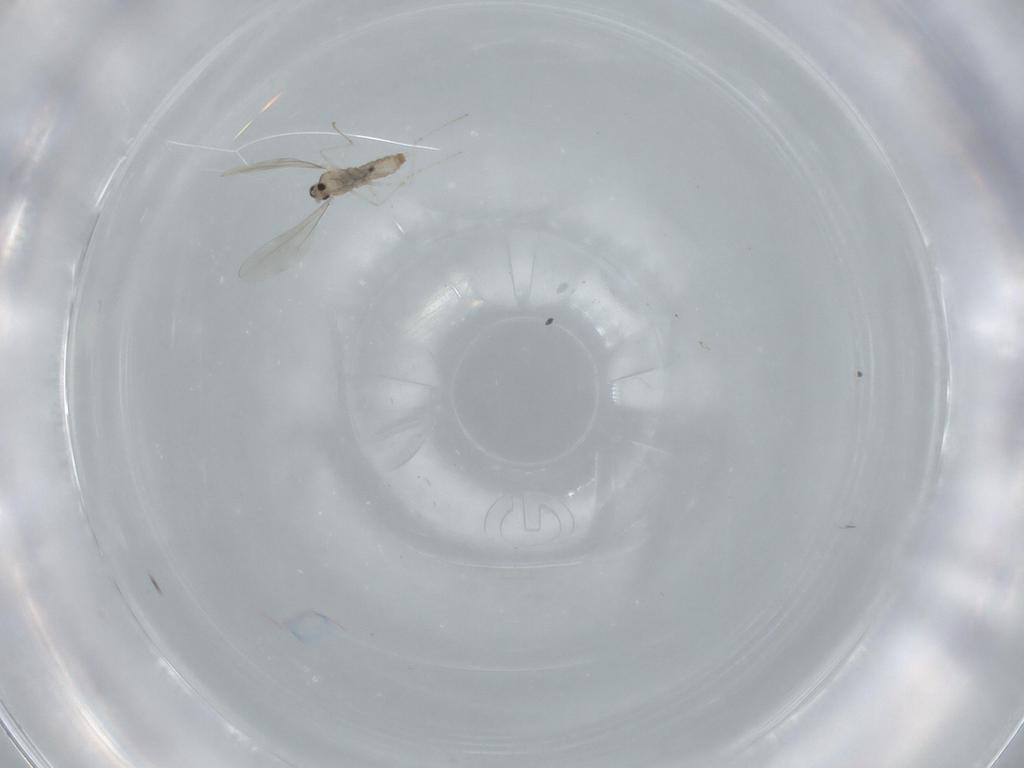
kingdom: Animalia
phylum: Arthropoda
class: Insecta
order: Diptera
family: Cecidomyiidae
